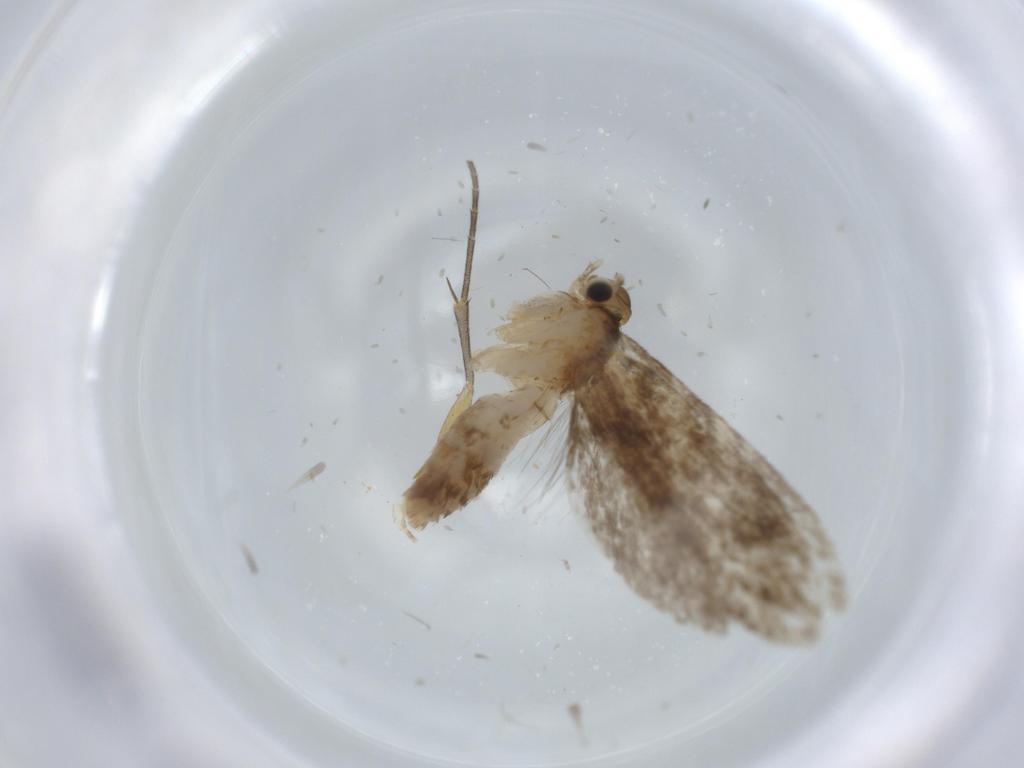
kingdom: Animalia
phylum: Arthropoda
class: Insecta
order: Lepidoptera
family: Tineidae
